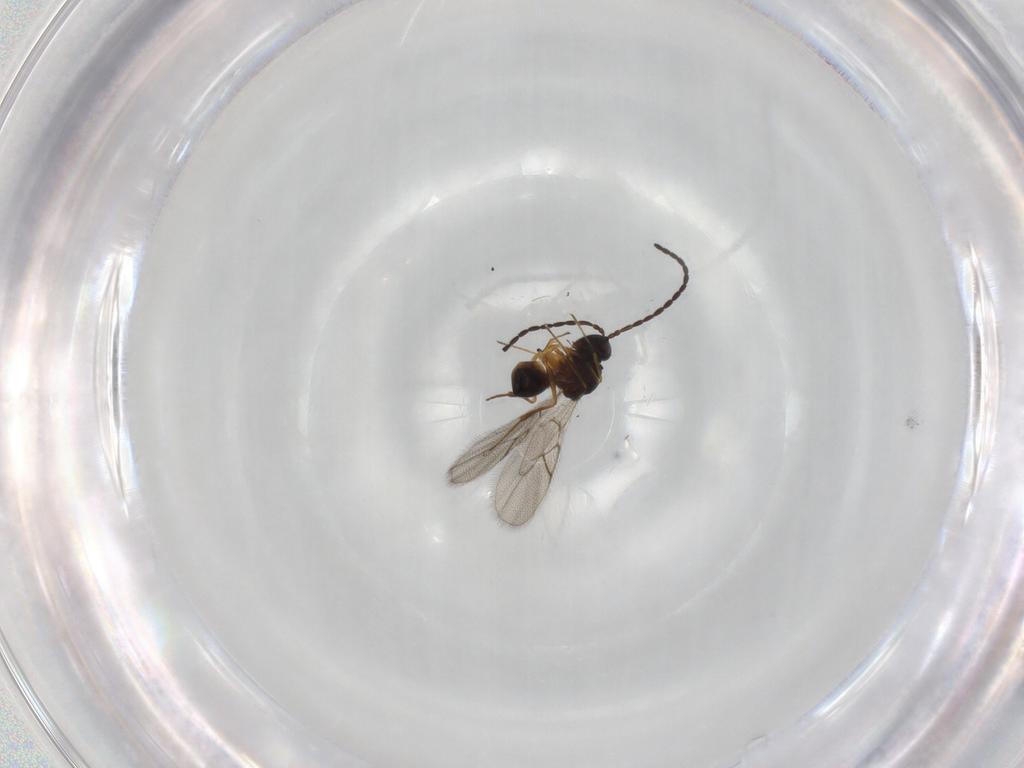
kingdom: Animalia
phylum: Arthropoda
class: Insecta
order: Hymenoptera
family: Figitidae
